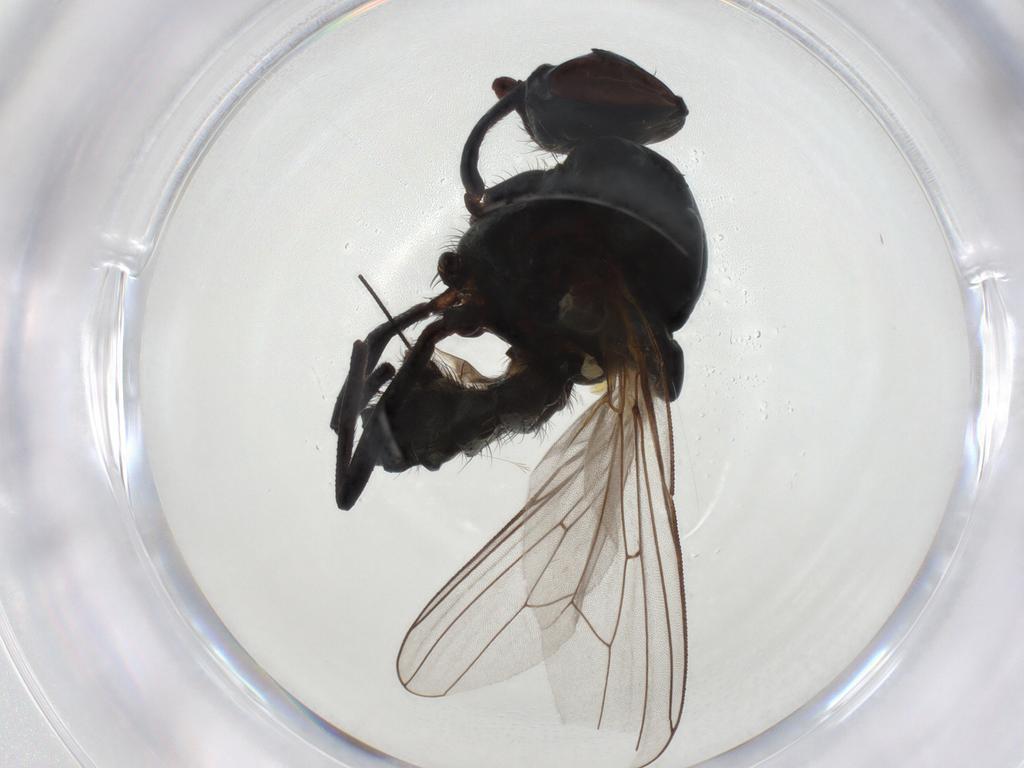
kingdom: Animalia
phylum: Arthropoda
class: Insecta
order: Diptera
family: Anthomyiidae
